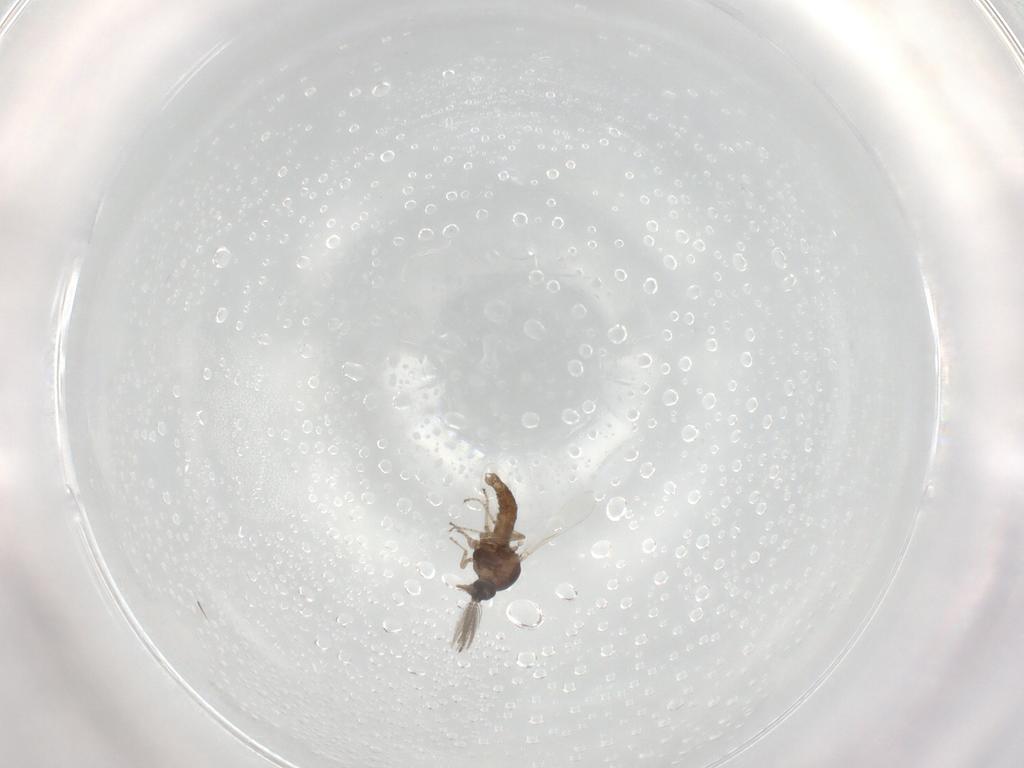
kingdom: Animalia
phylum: Arthropoda
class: Insecta
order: Diptera
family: Ceratopogonidae
